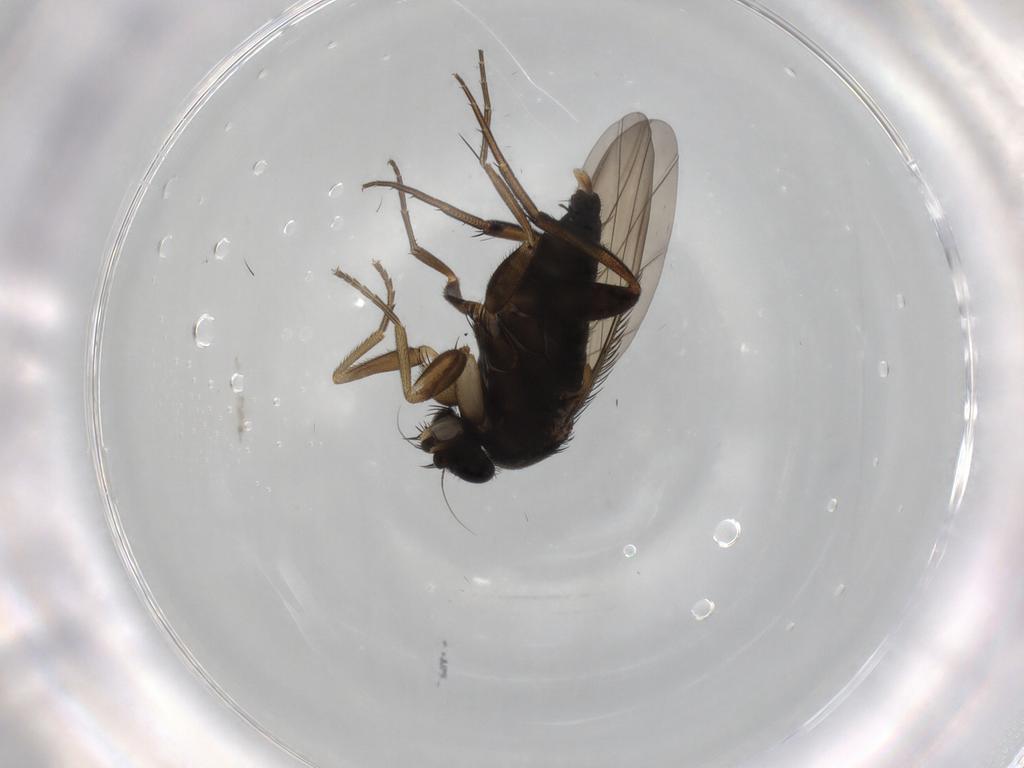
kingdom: Animalia
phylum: Arthropoda
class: Insecta
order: Diptera
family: Phoridae
